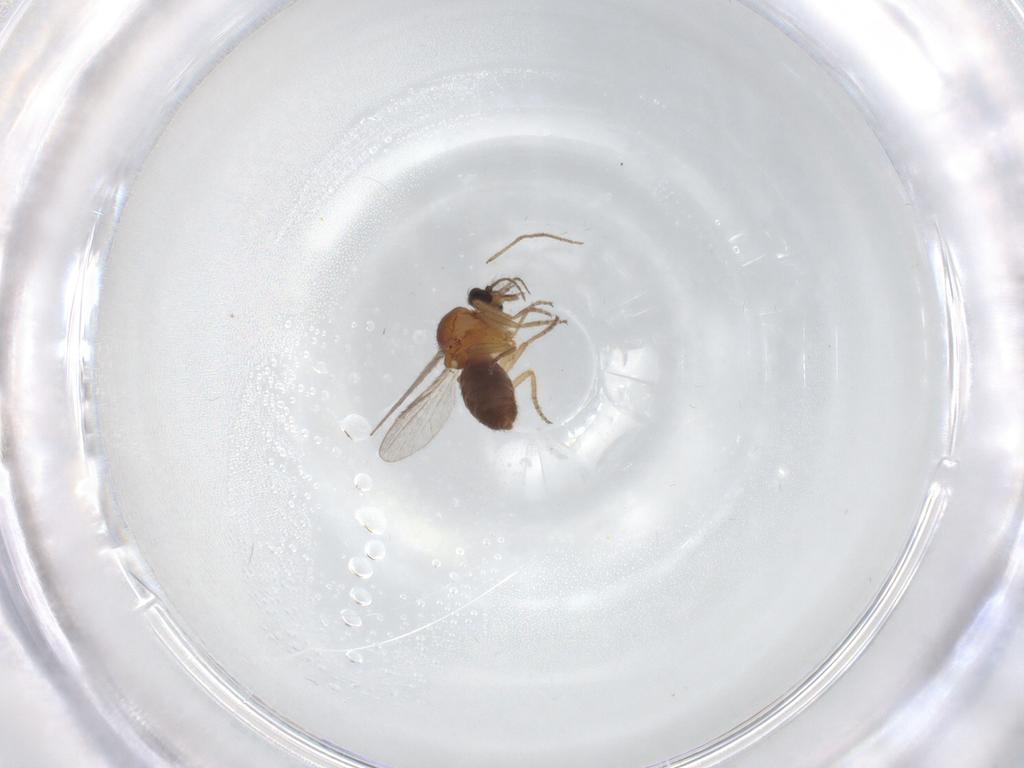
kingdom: Animalia
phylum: Arthropoda
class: Insecta
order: Diptera
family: Ceratopogonidae
